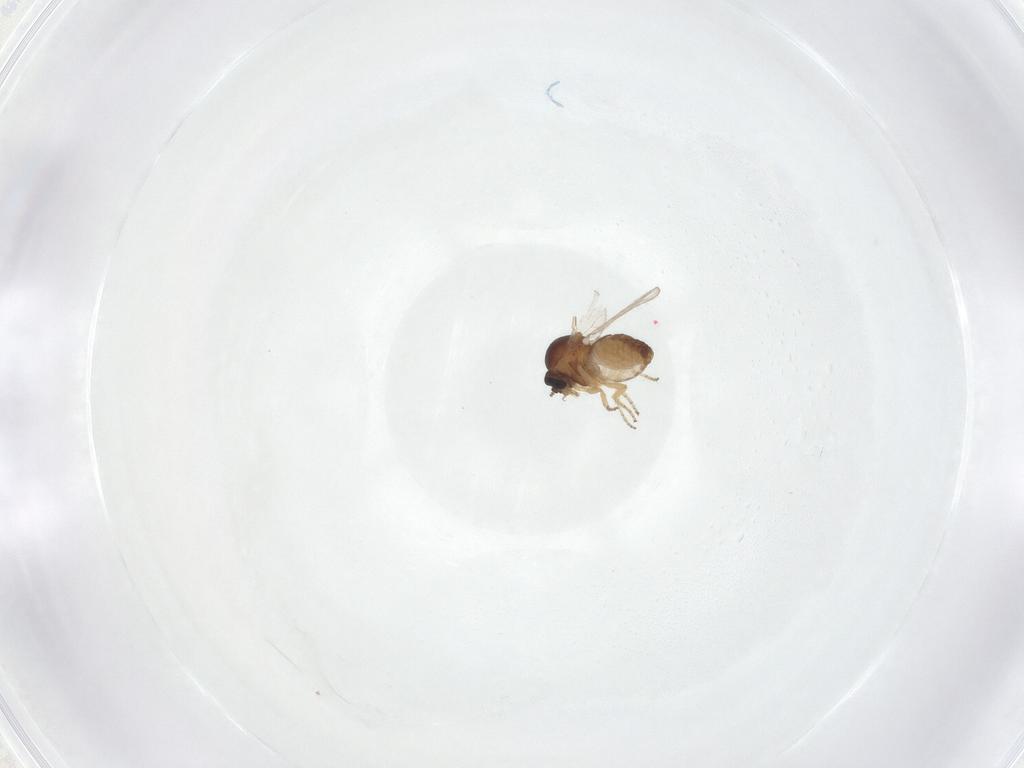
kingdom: Animalia
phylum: Arthropoda
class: Insecta
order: Diptera
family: Ceratopogonidae
